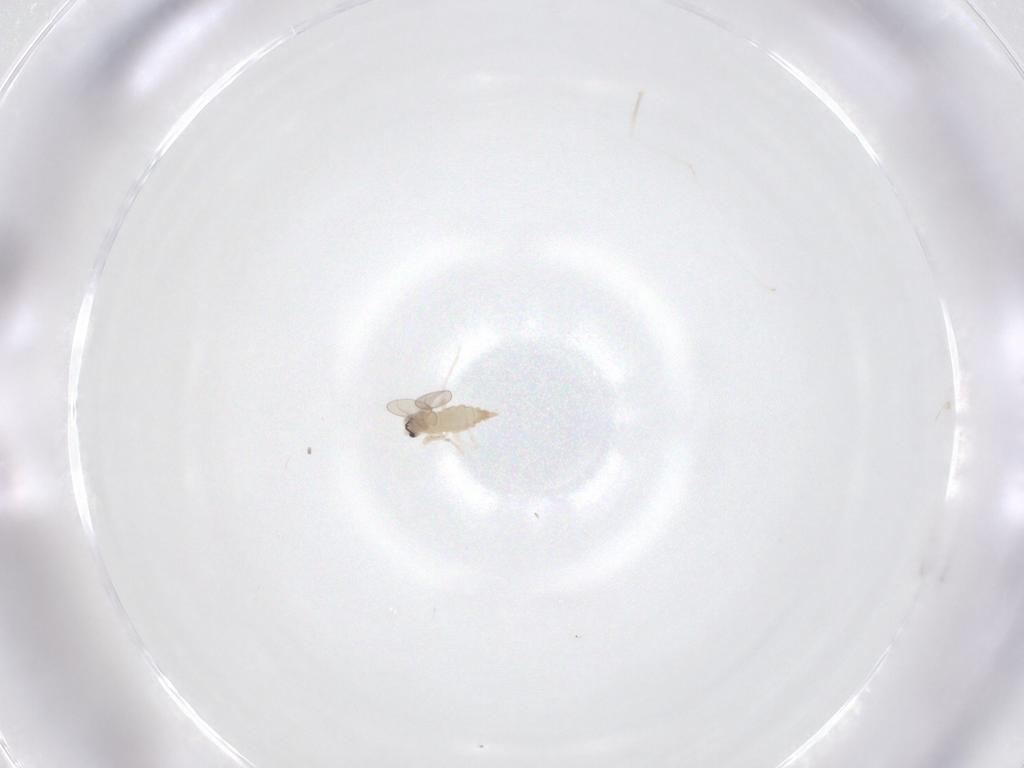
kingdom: Animalia
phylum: Arthropoda
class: Insecta
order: Diptera
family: Cecidomyiidae
